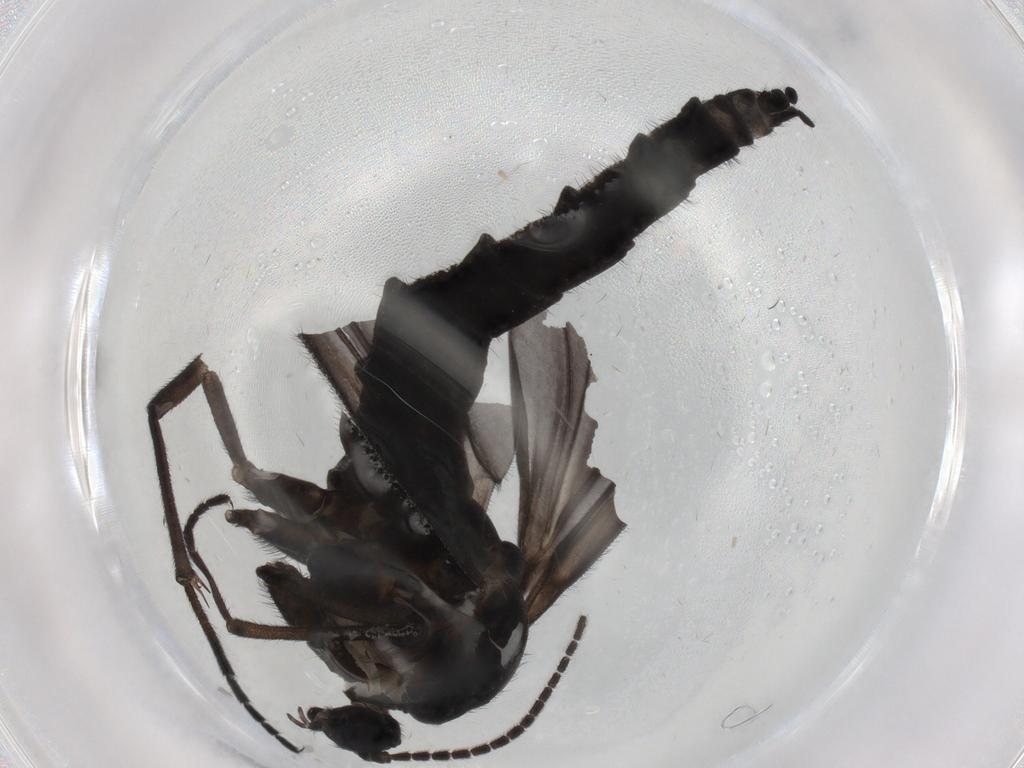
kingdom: Animalia
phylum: Arthropoda
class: Insecta
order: Diptera
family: Sciaridae
